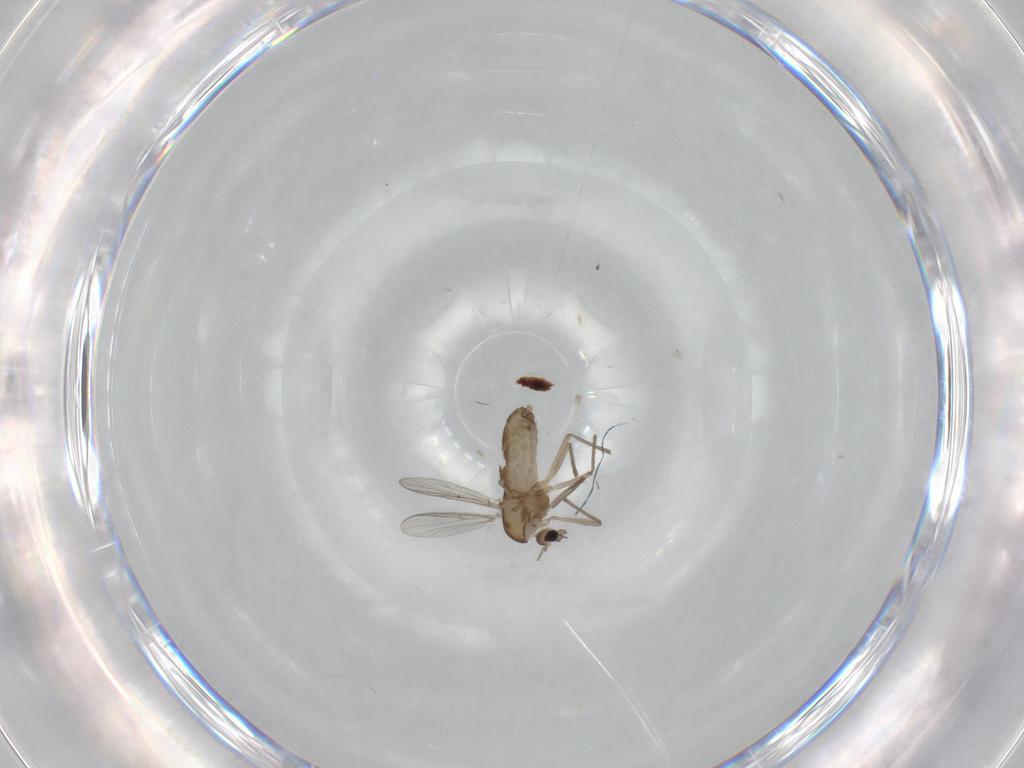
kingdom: Animalia
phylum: Arthropoda
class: Insecta
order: Diptera
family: Chironomidae
